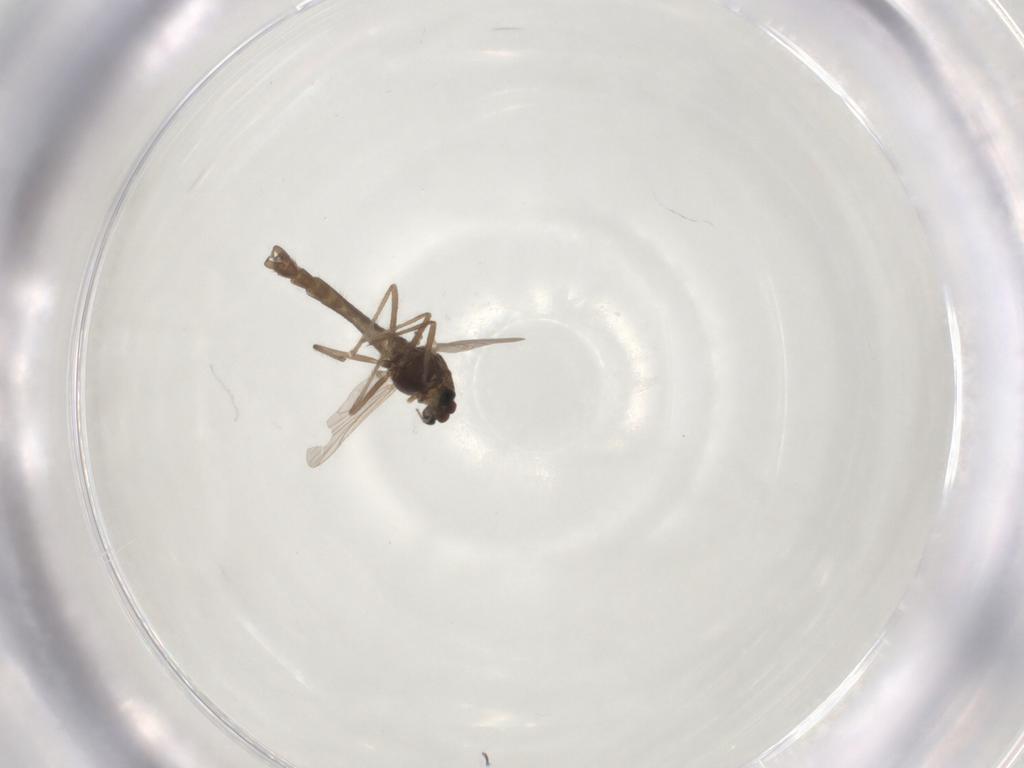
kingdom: Animalia
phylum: Arthropoda
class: Insecta
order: Diptera
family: Chironomidae
